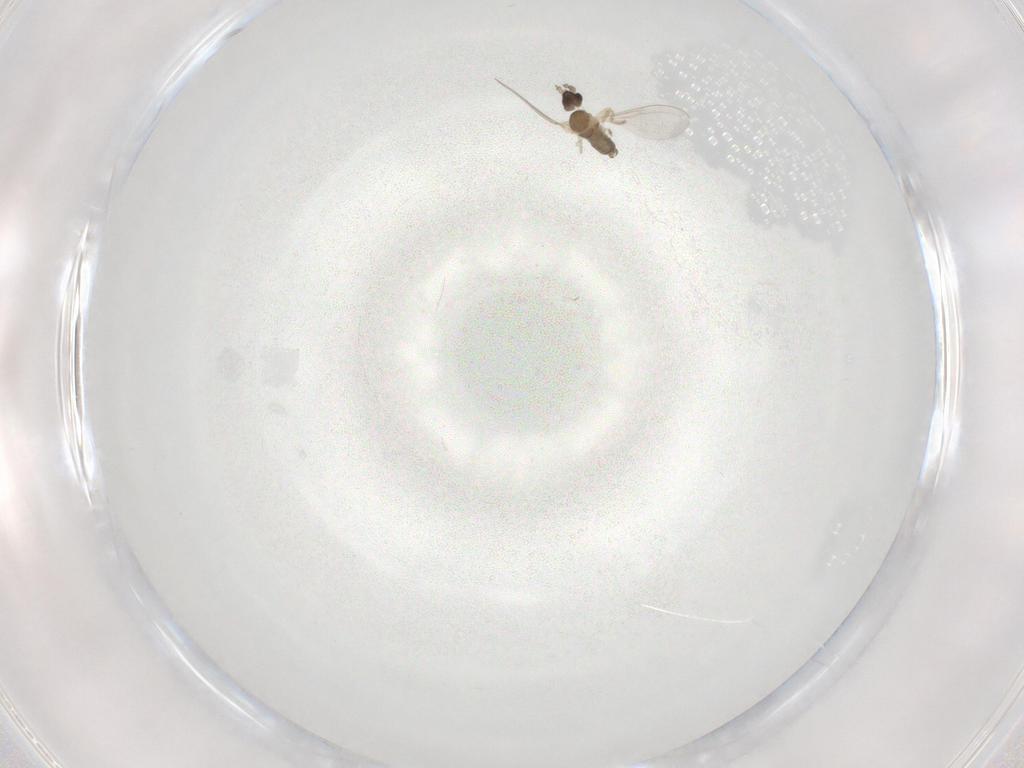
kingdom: Animalia
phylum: Arthropoda
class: Insecta
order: Diptera
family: Cecidomyiidae
